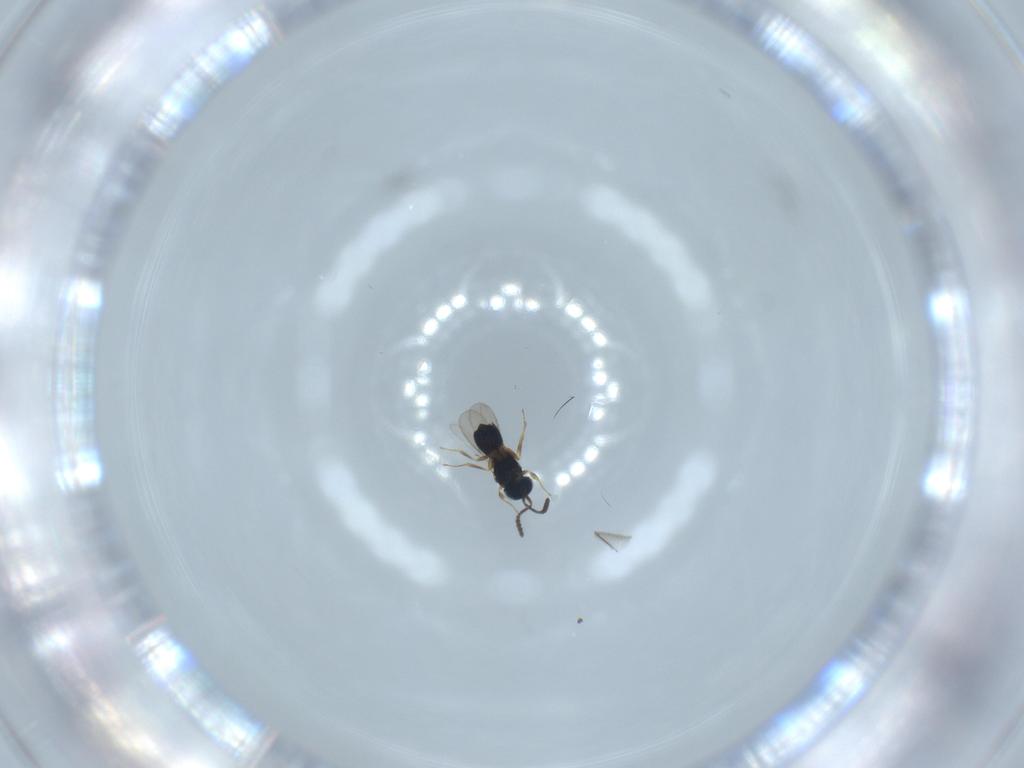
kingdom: Animalia
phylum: Arthropoda
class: Insecta
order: Hymenoptera
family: Scelionidae
